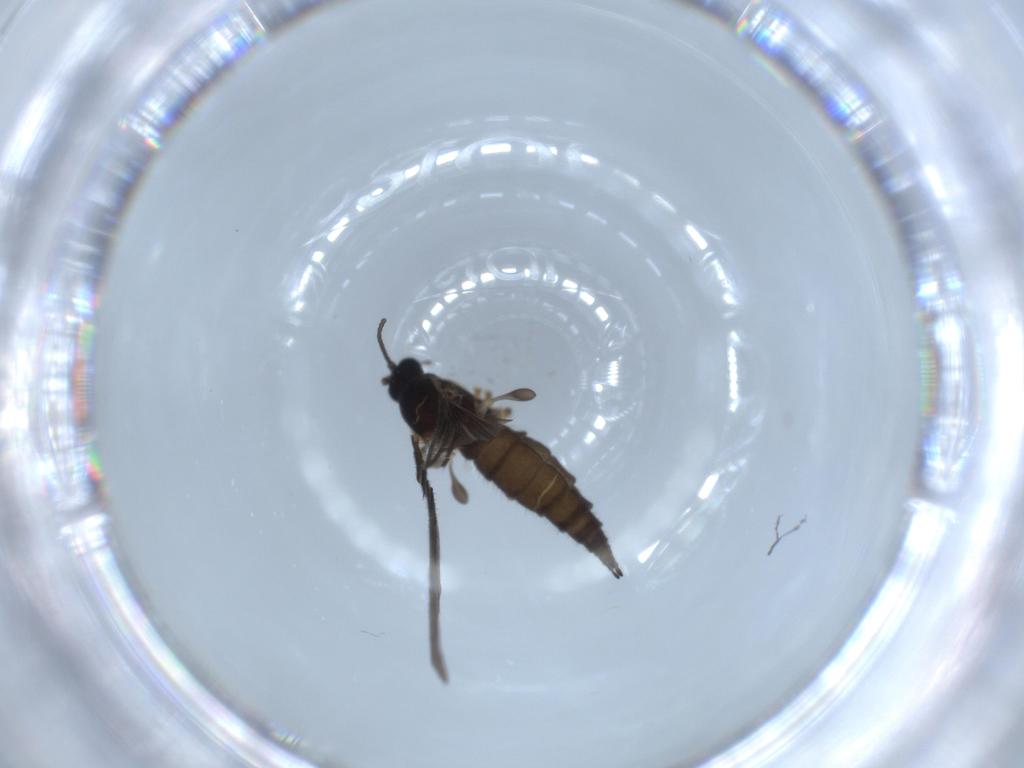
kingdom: Animalia
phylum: Arthropoda
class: Insecta
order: Diptera
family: Sciaridae
